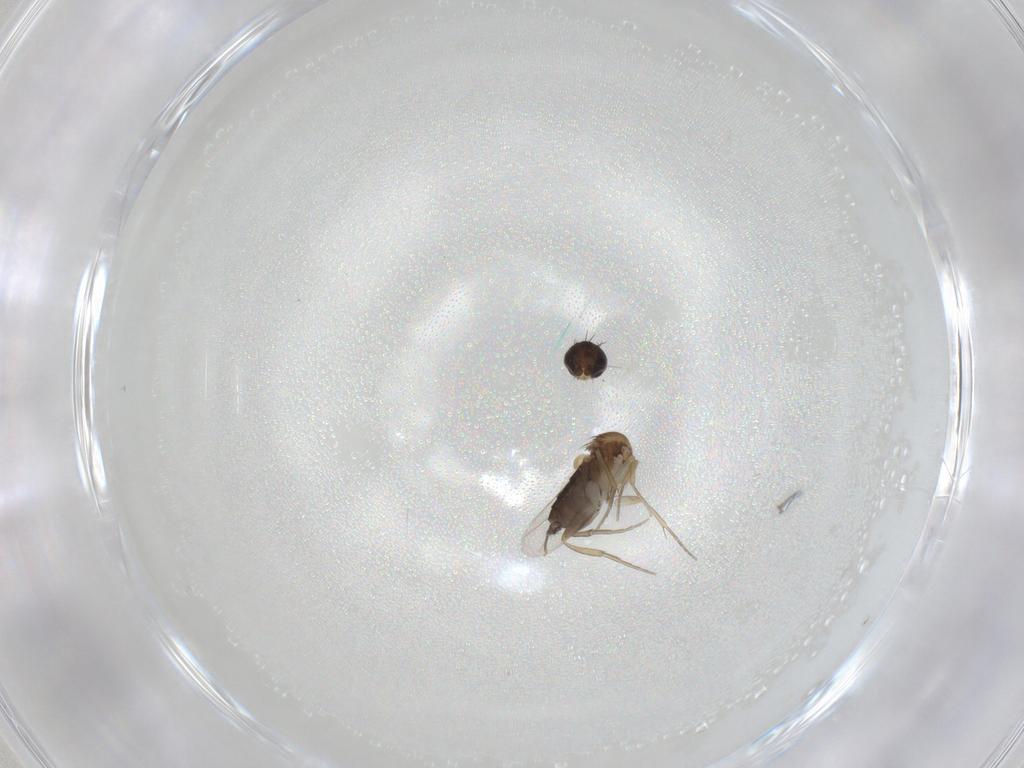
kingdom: Animalia
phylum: Arthropoda
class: Insecta
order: Diptera
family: Phoridae
